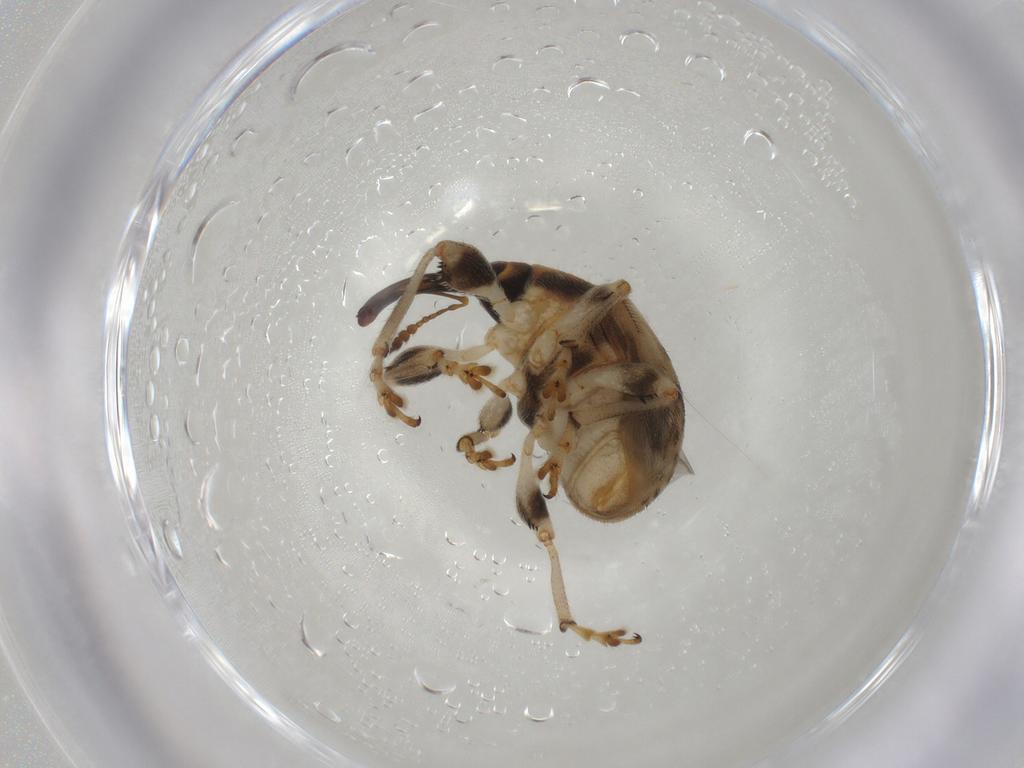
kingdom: Animalia
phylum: Arthropoda
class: Insecta
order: Coleoptera
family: Brentidae
